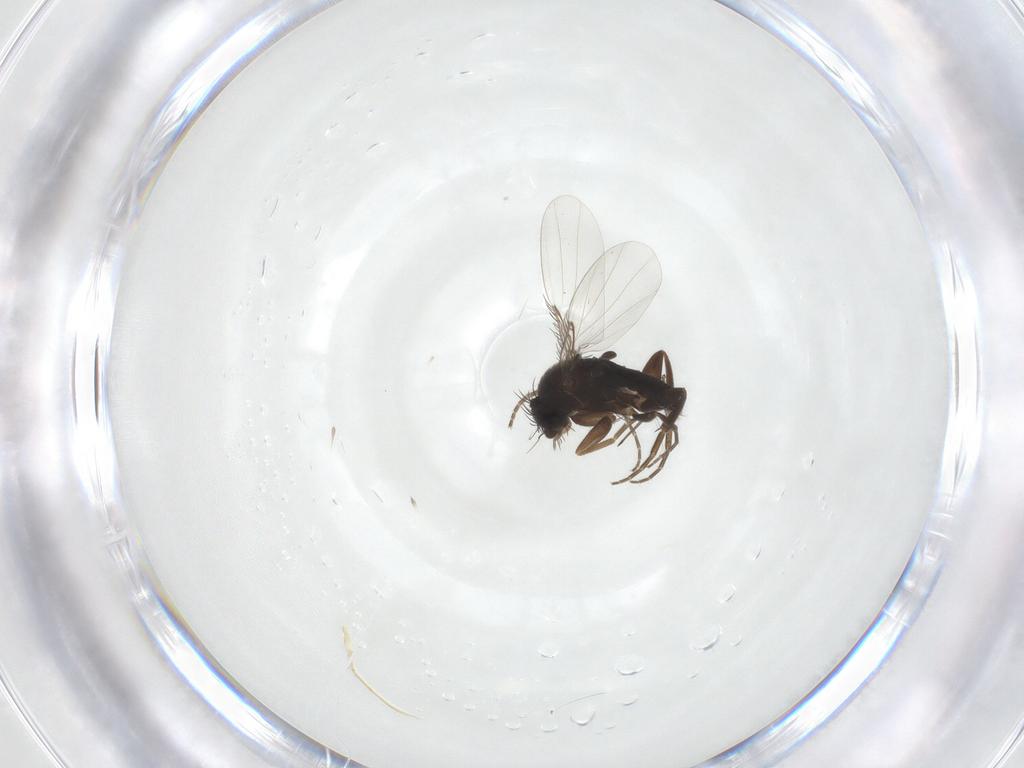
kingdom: Animalia
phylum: Arthropoda
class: Insecta
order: Diptera
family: Phoridae
